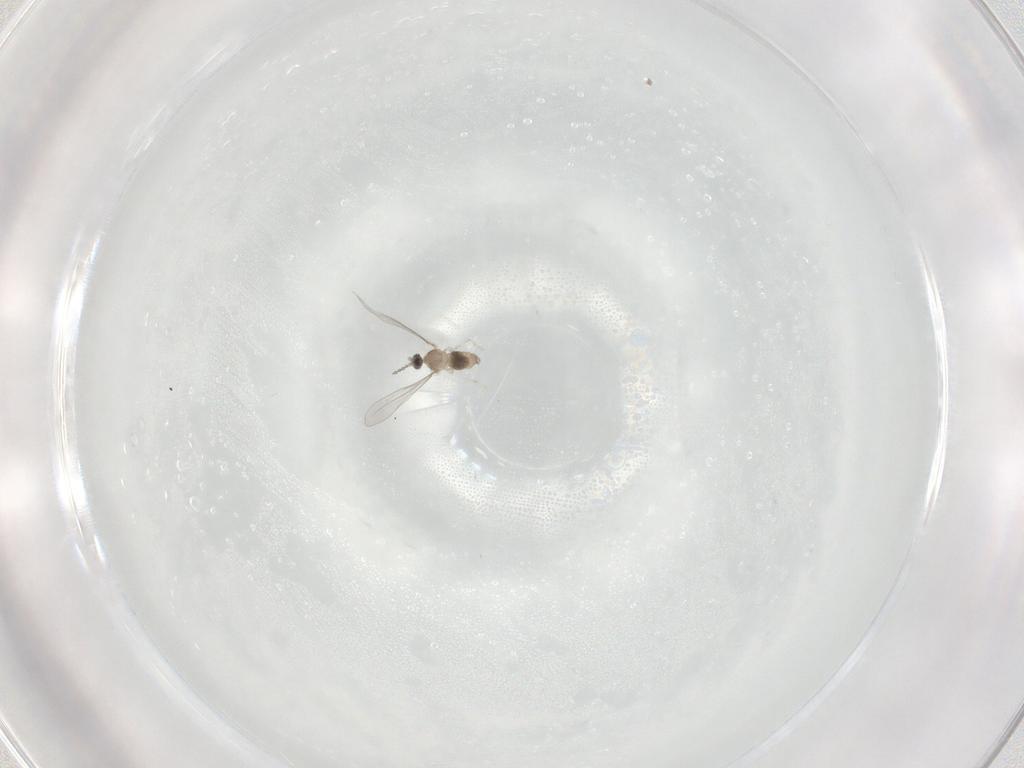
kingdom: Animalia
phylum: Arthropoda
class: Insecta
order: Diptera
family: Cecidomyiidae
